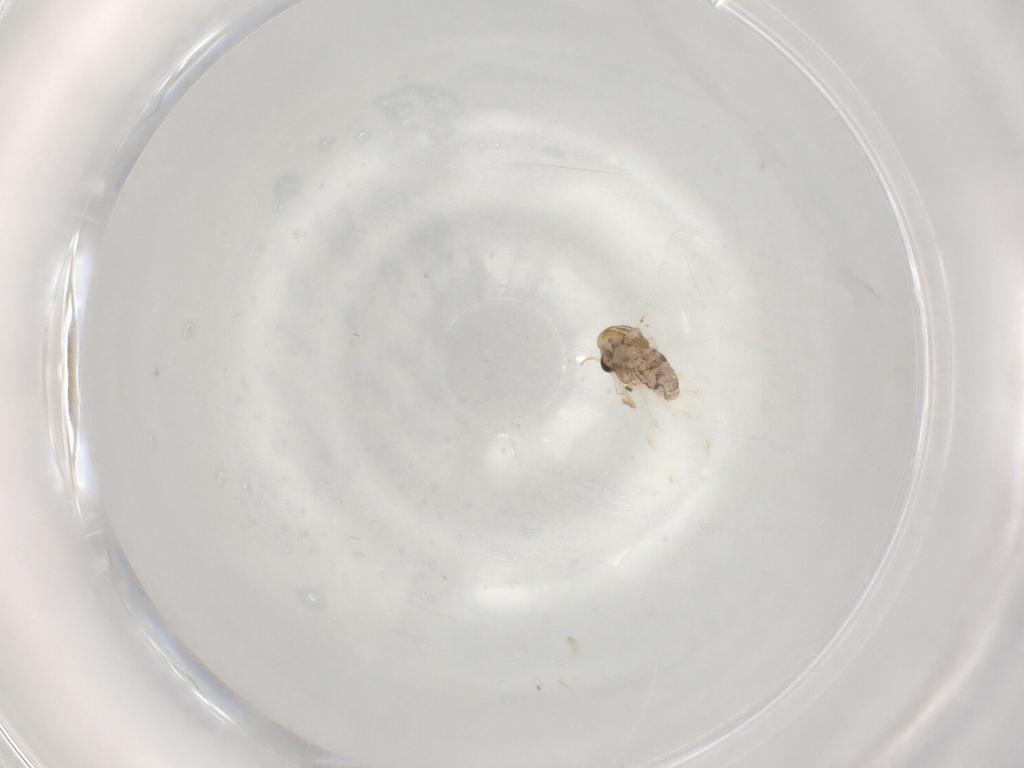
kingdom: Animalia
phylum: Arthropoda
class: Insecta
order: Diptera
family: Chironomidae
